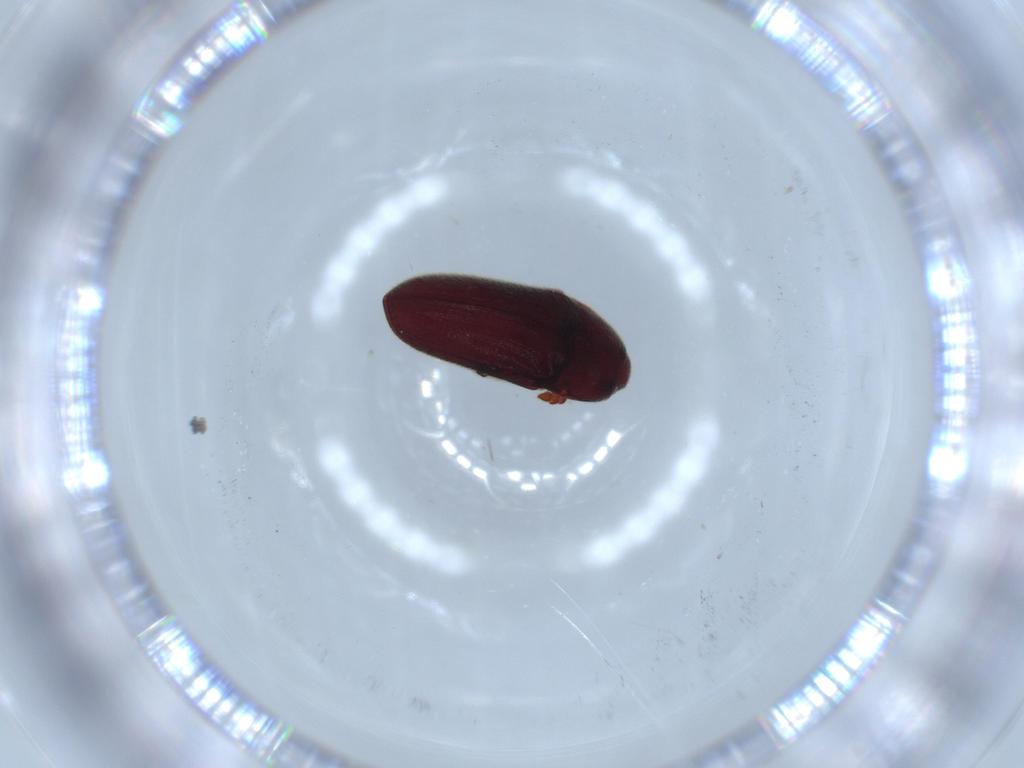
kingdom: Animalia
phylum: Arthropoda
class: Insecta
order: Coleoptera
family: Throscidae
